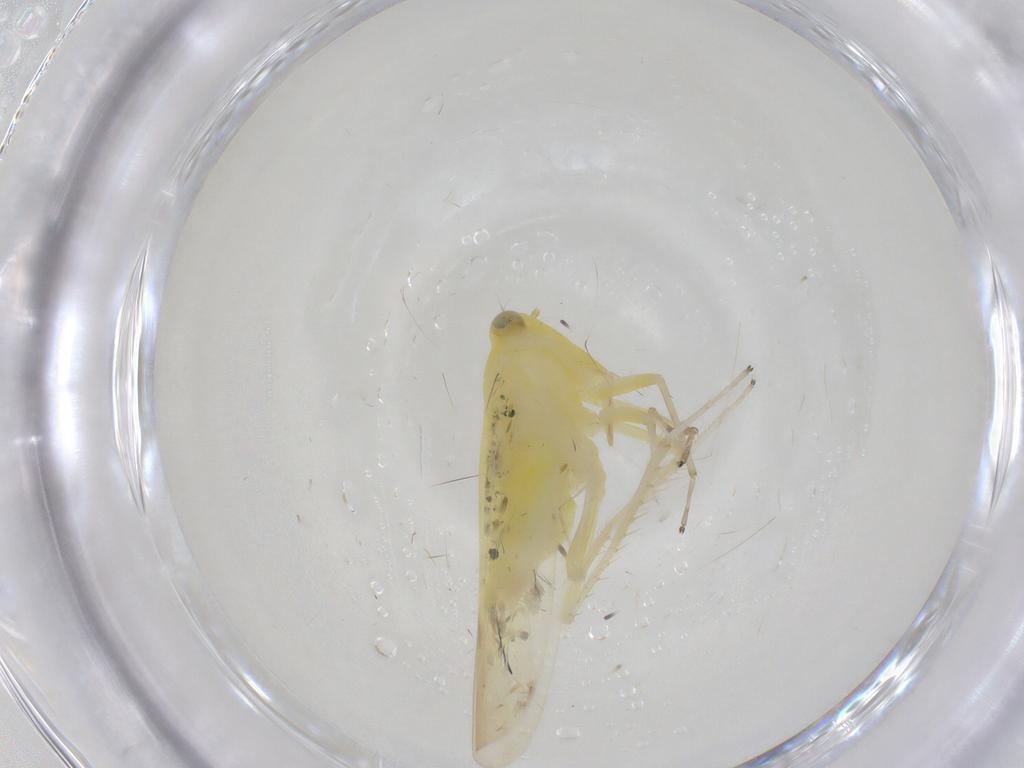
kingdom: Animalia
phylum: Arthropoda
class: Insecta
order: Hemiptera
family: Cicadellidae
